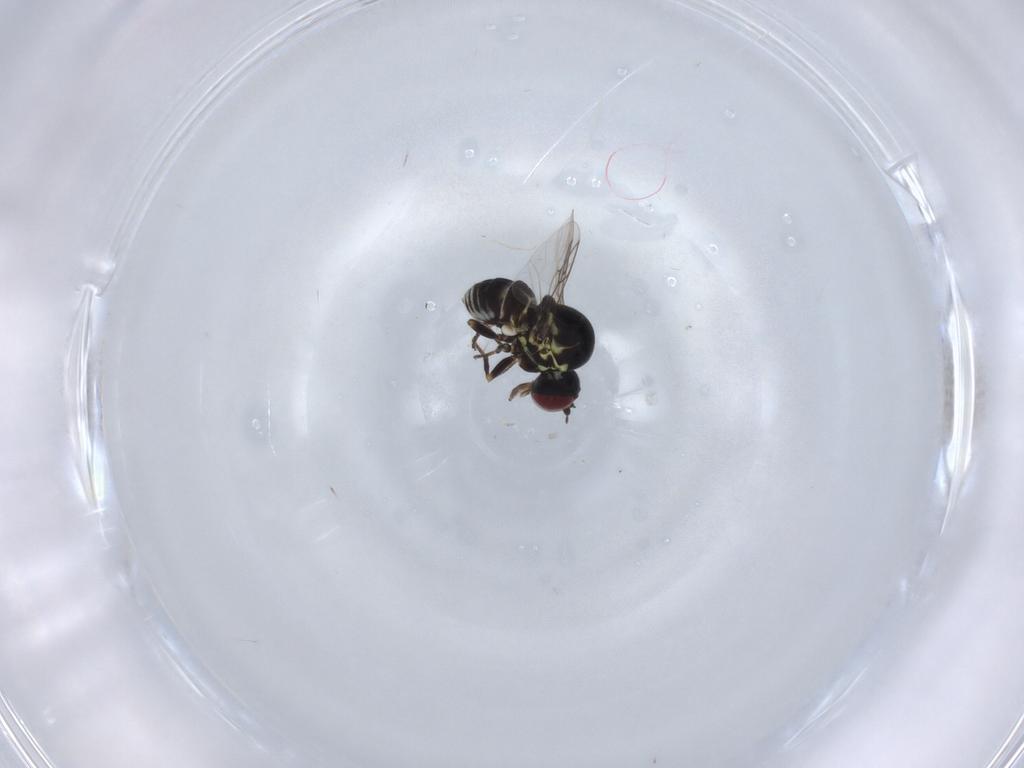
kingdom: Animalia
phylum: Arthropoda
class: Insecta
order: Diptera
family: Mythicomyiidae
